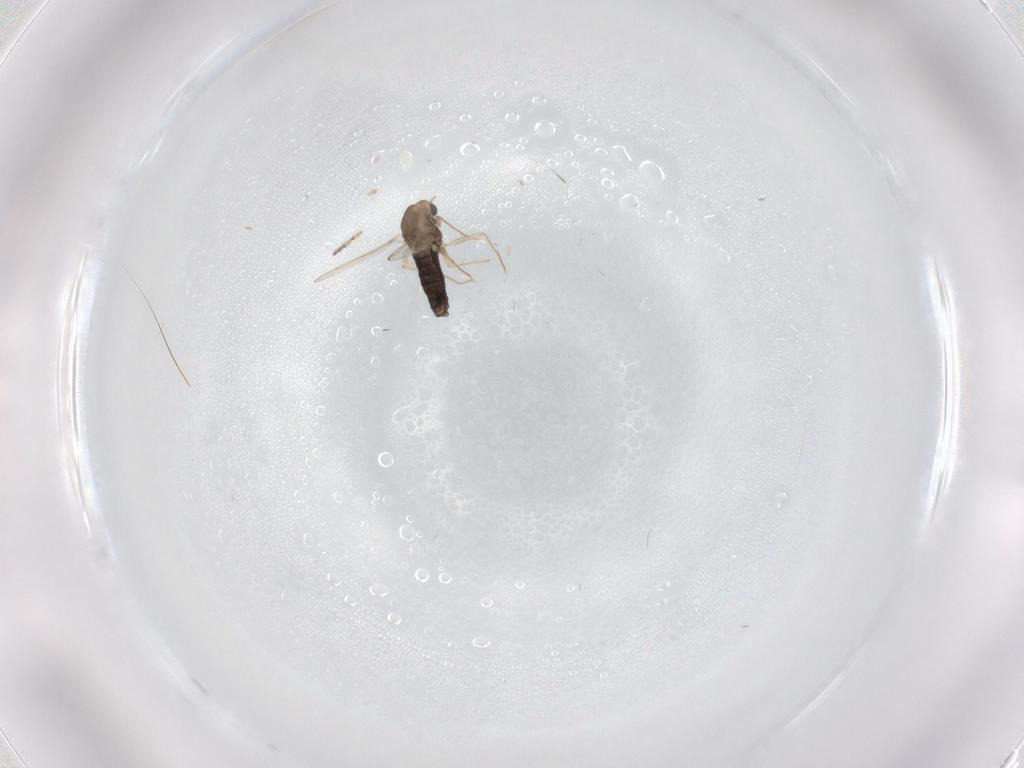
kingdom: Animalia
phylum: Arthropoda
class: Insecta
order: Diptera
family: Chironomidae
